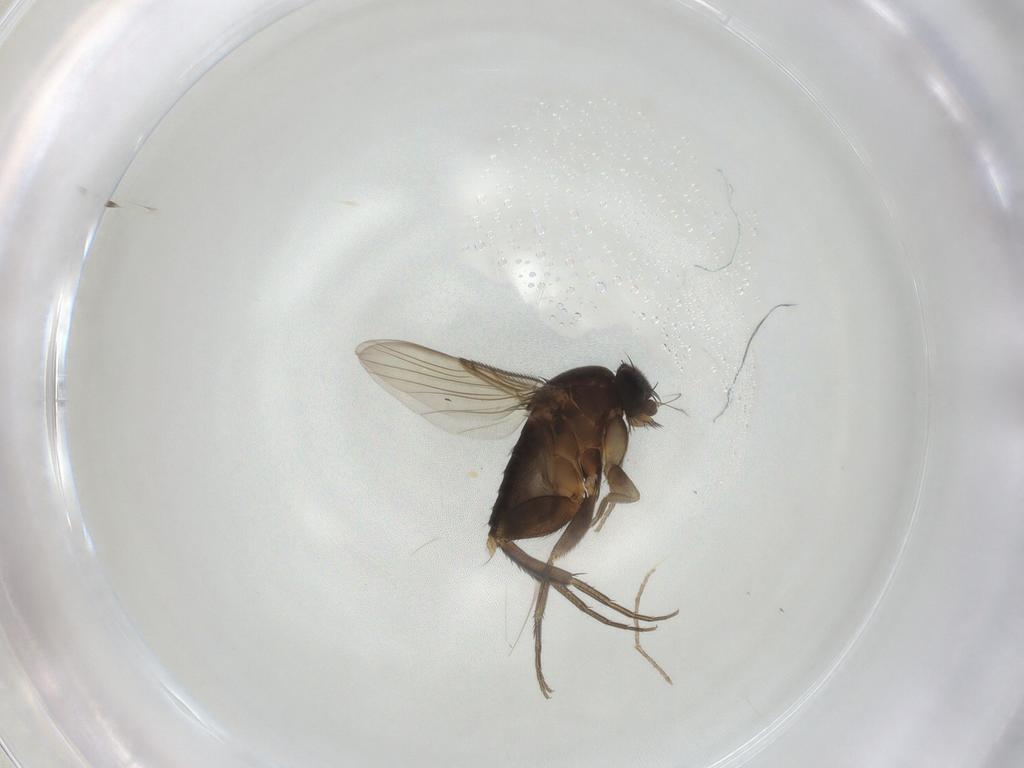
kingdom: Animalia
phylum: Arthropoda
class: Insecta
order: Diptera
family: Phoridae
